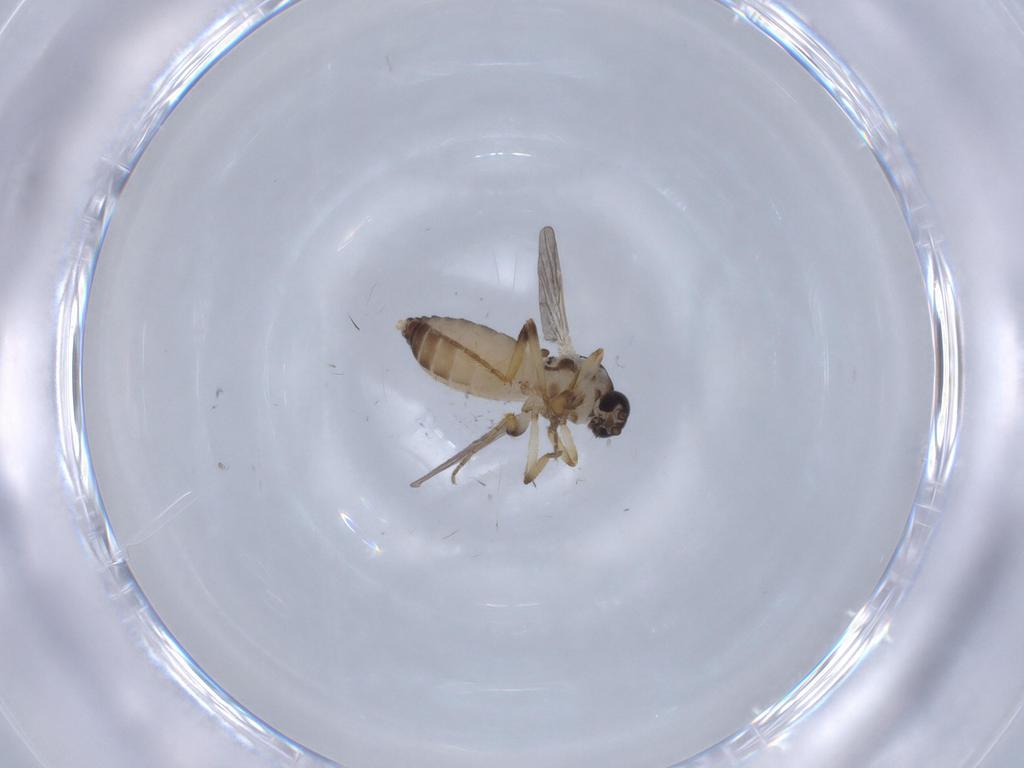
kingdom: Animalia
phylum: Arthropoda
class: Insecta
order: Diptera
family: Ceratopogonidae
